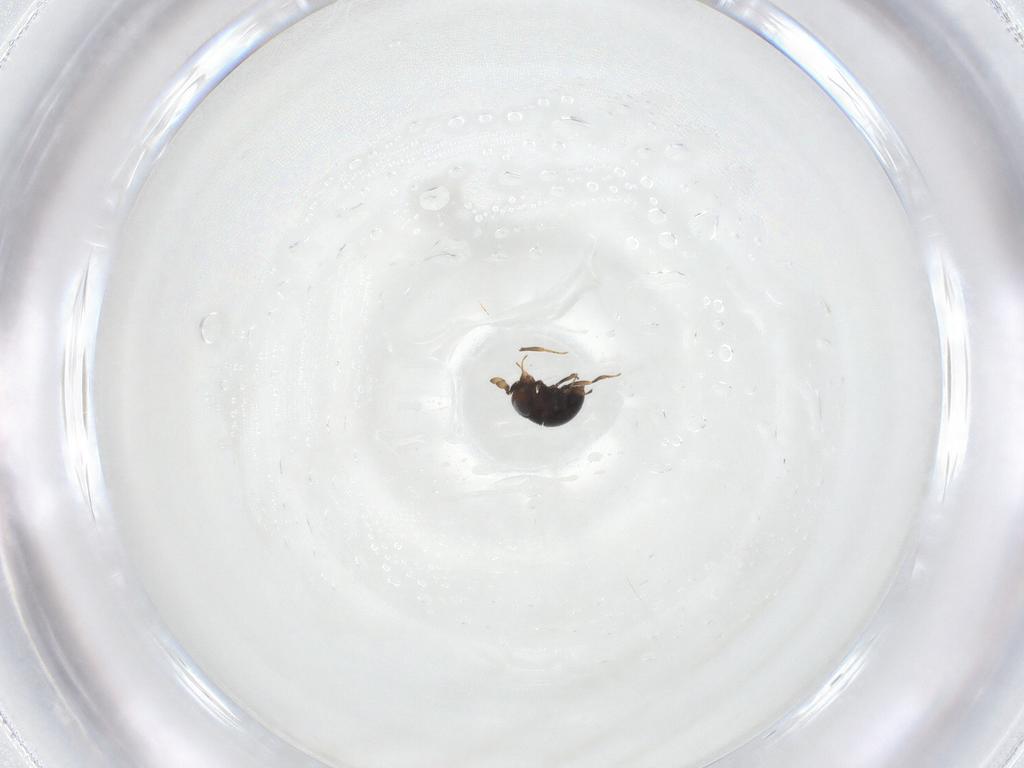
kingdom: Animalia
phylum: Arthropoda
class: Insecta
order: Hymenoptera
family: Scelionidae
